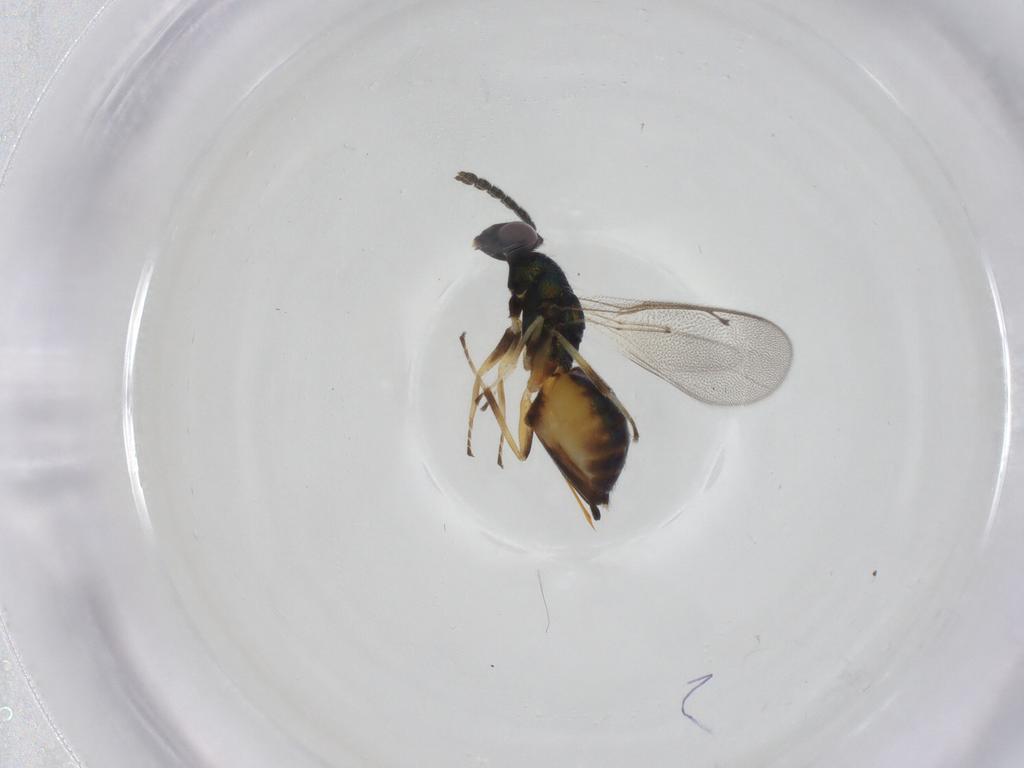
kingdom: Animalia
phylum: Arthropoda
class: Insecta
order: Hymenoptera
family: Eulophidae
